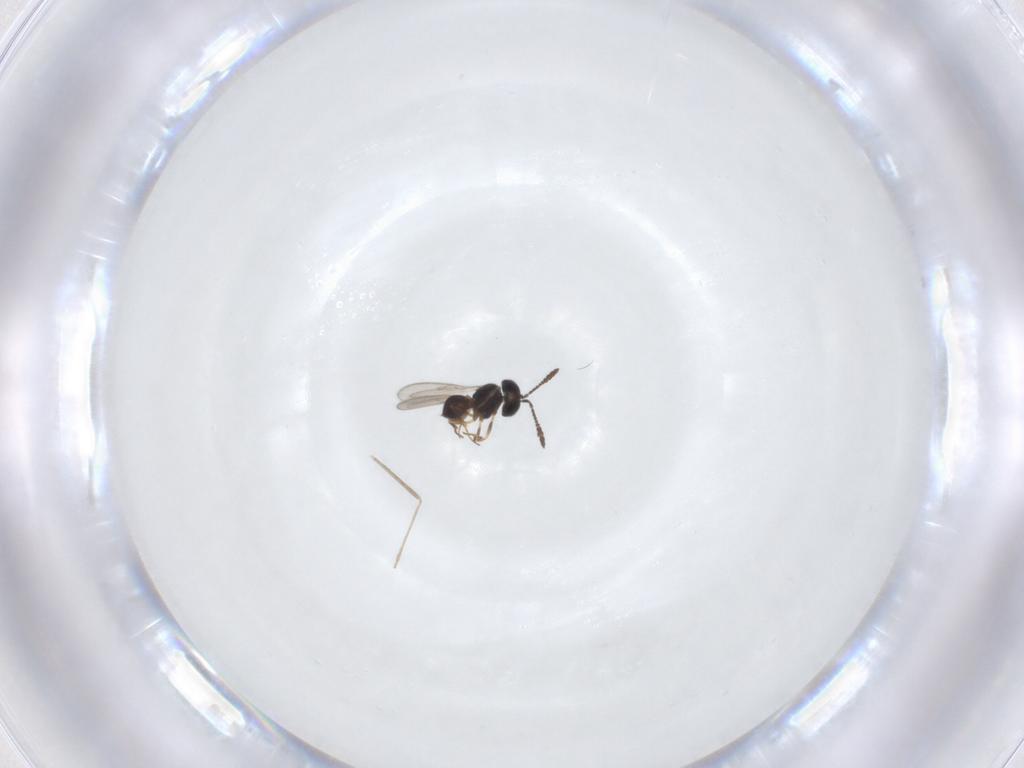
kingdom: Animalia
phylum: Arthropoda
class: Insecta
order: Hymenoptera
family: Scelionidae
